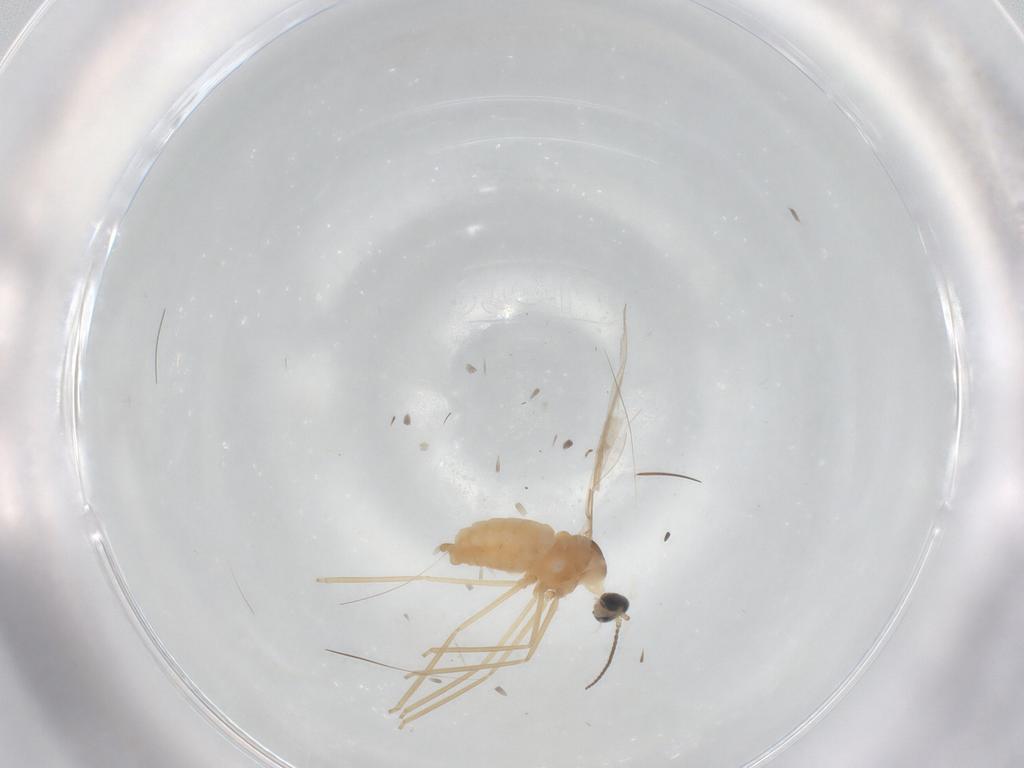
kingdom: Animalia
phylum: Arthropoda
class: Insecta
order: Diptera
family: Cecidomyiidae
